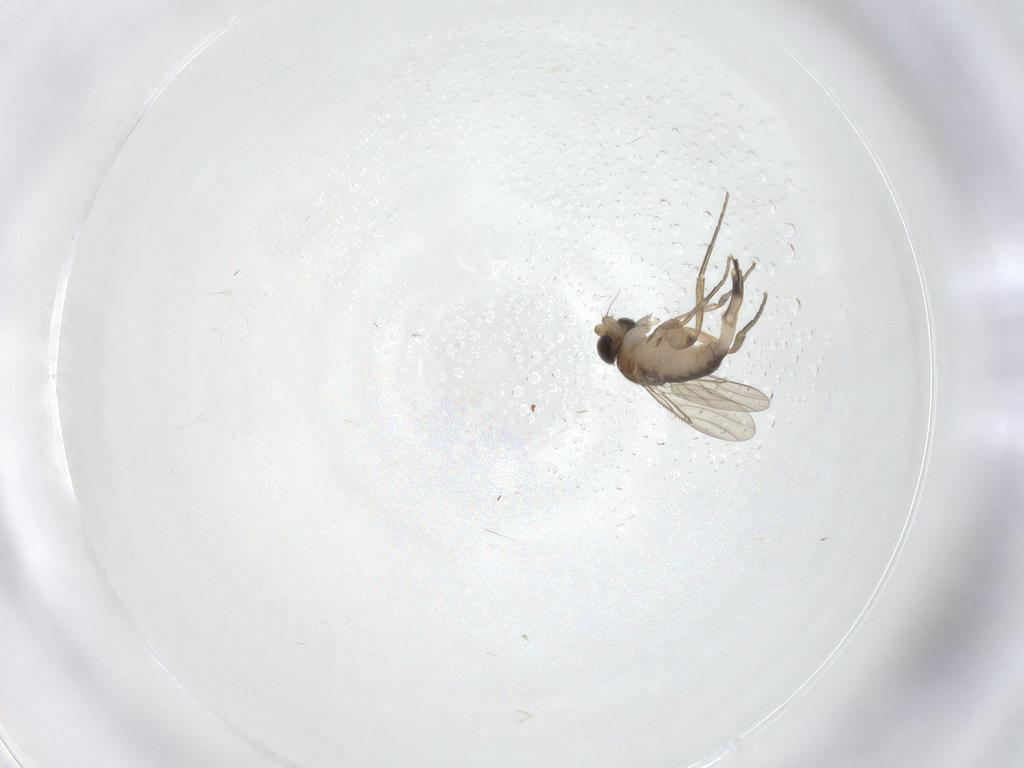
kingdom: Animalia
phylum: Arthropoda
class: Insecta
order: Diptera
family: Phoridae
